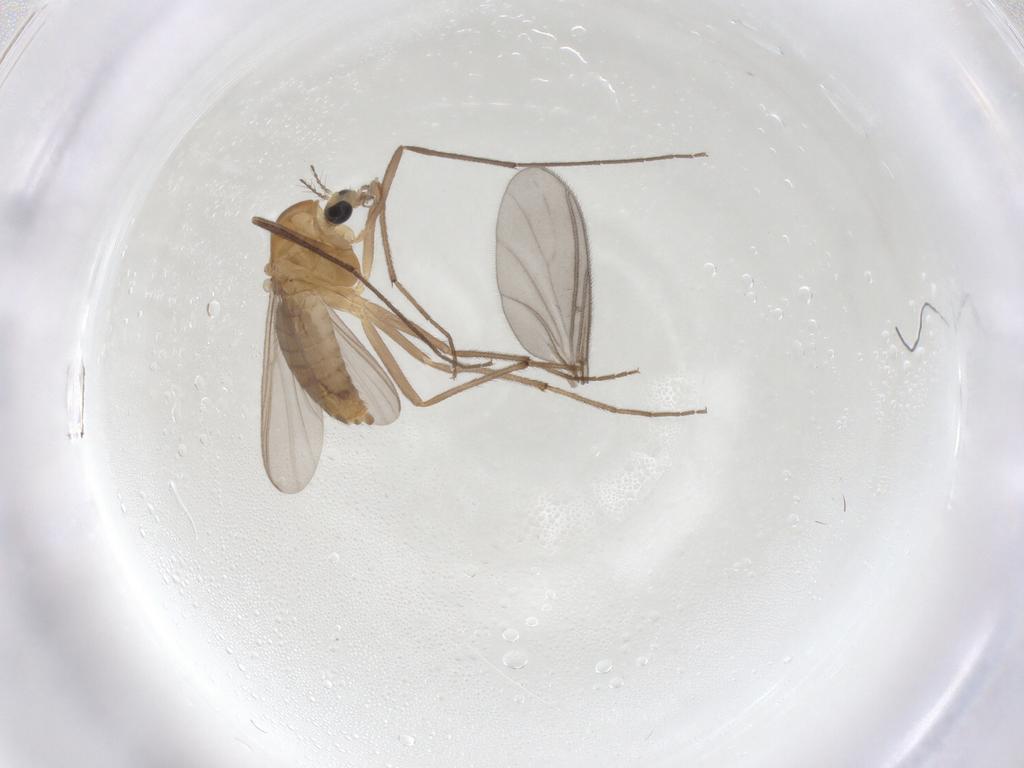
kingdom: Animalia
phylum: Arthropoda
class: Insecta
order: Diptera
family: Chironomidae
